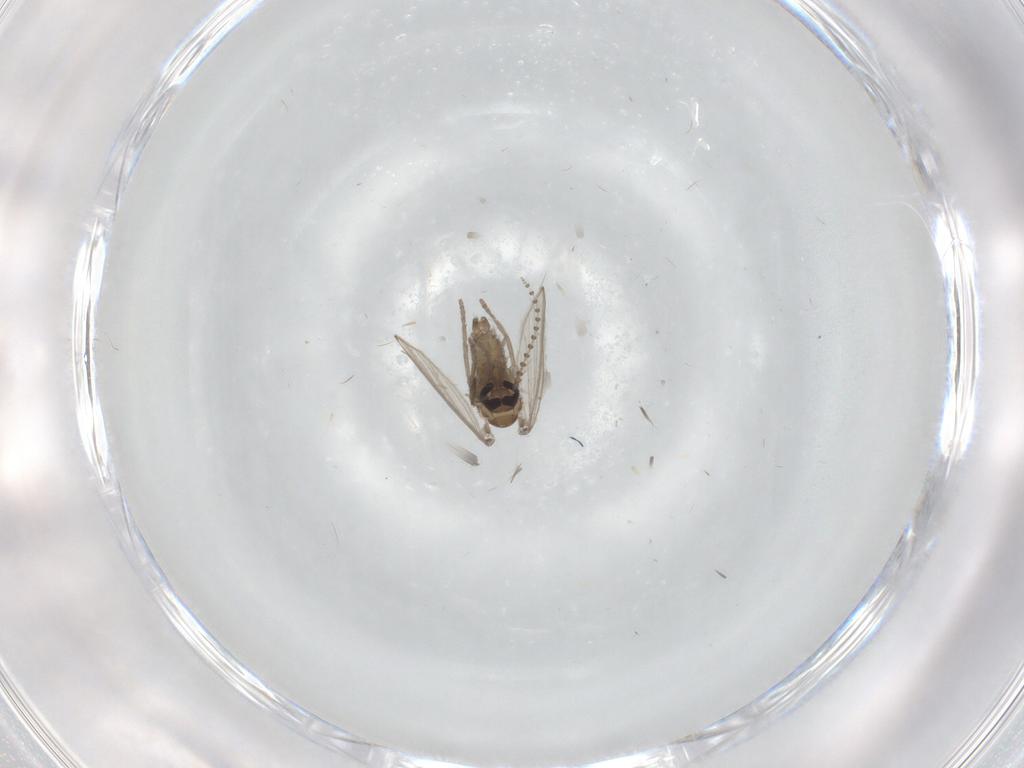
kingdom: Animalia
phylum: Arthropoda
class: Insecta
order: Diptera
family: Psychodidae
